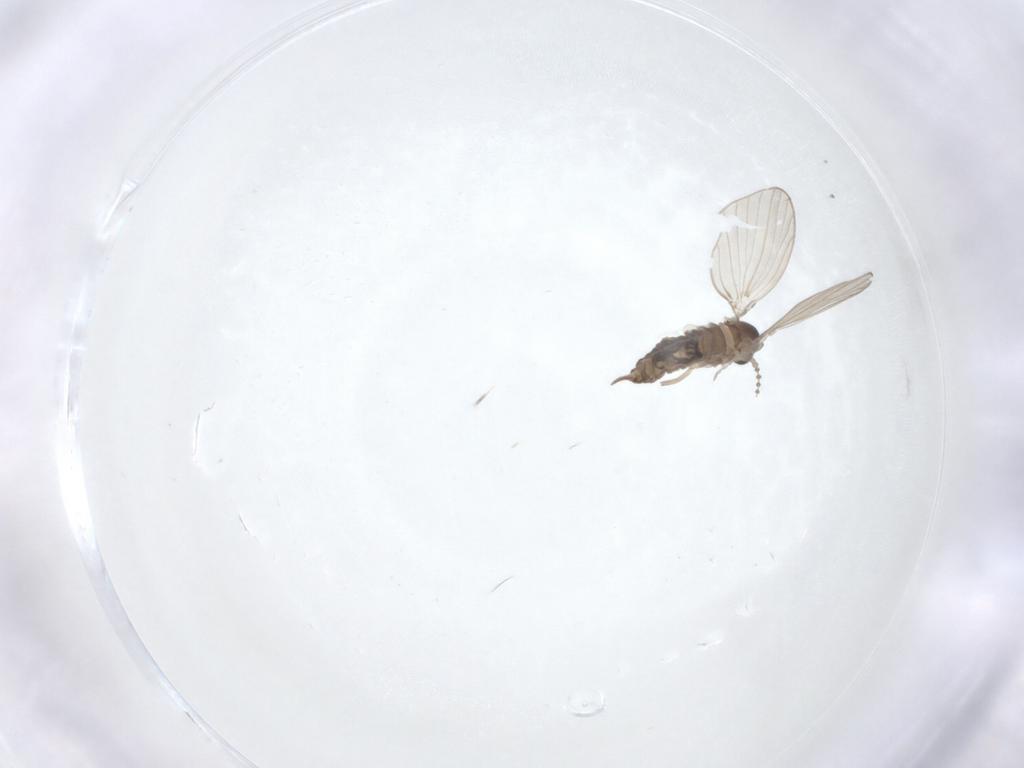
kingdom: Animalia
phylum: Arthropoda
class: Insecta
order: Diptera
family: Psychodidae
